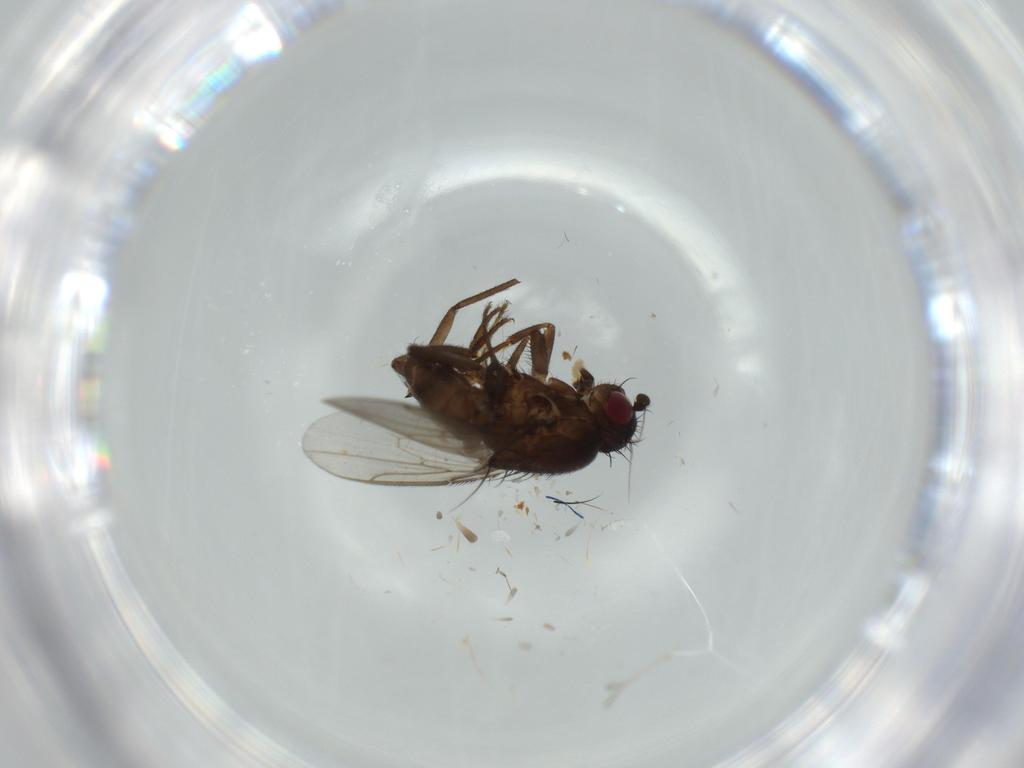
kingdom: Animalia
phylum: Arthropoda
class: Insecta
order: Diptera
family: Sphaeroceridae
